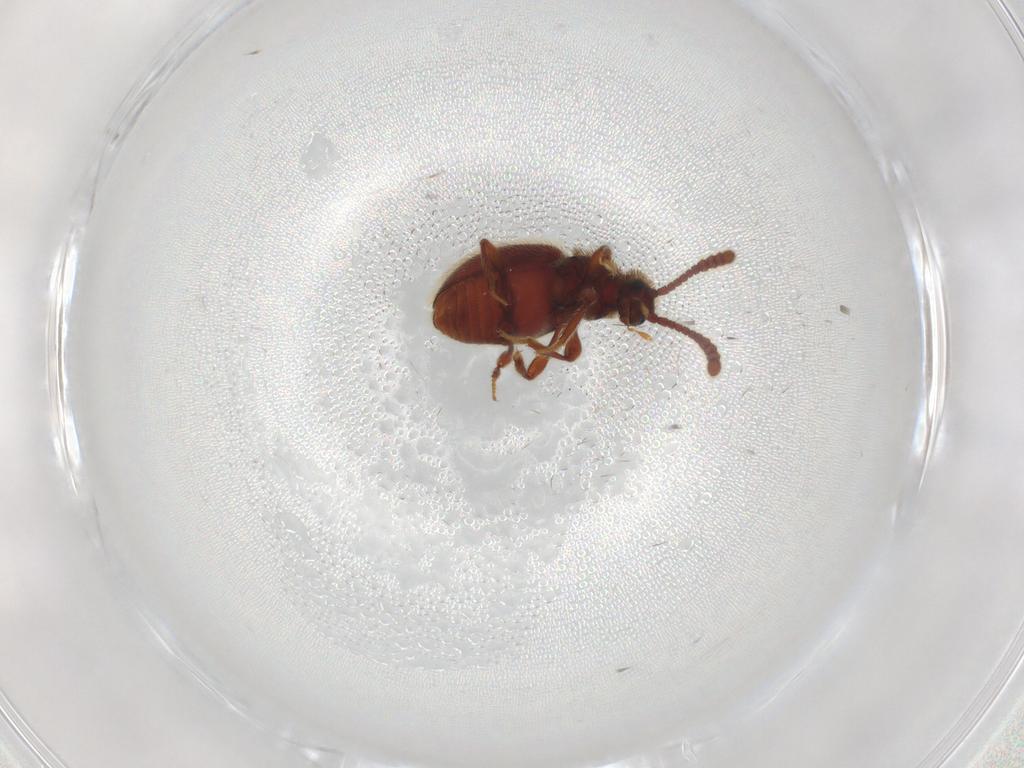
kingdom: Animalia
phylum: Arthropoda
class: Insecta
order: Coleoptera
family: Staphylinidae
